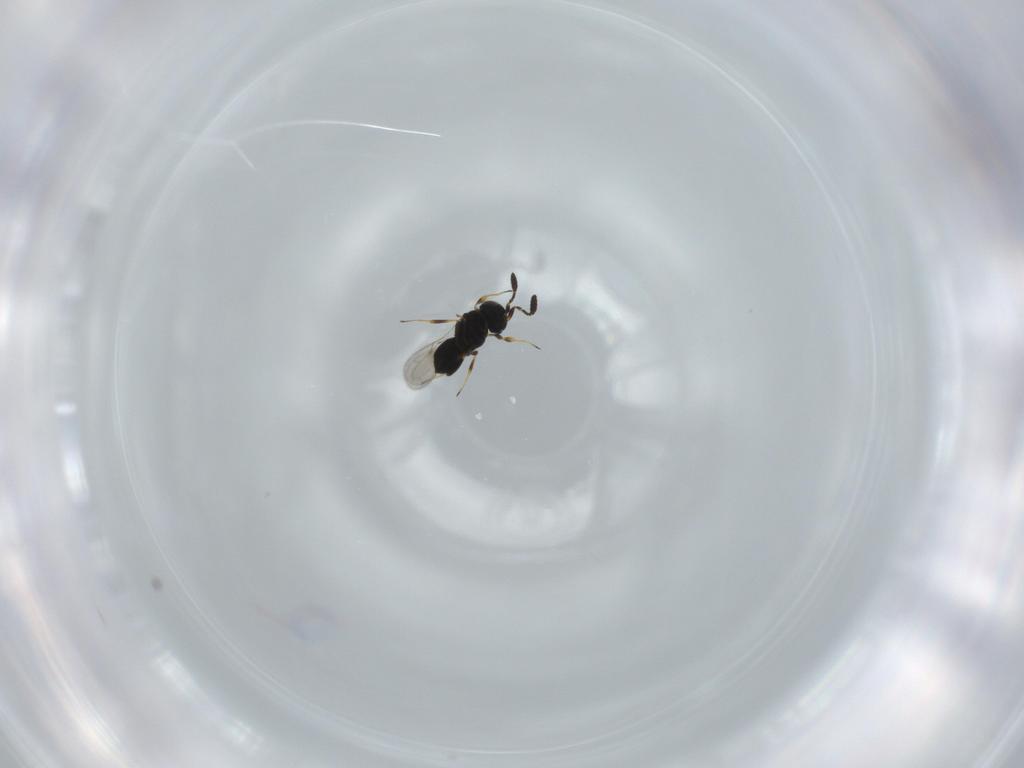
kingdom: Animalia
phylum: Arthropoda
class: Insecta
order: Hymenoptera
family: Scelionidae
